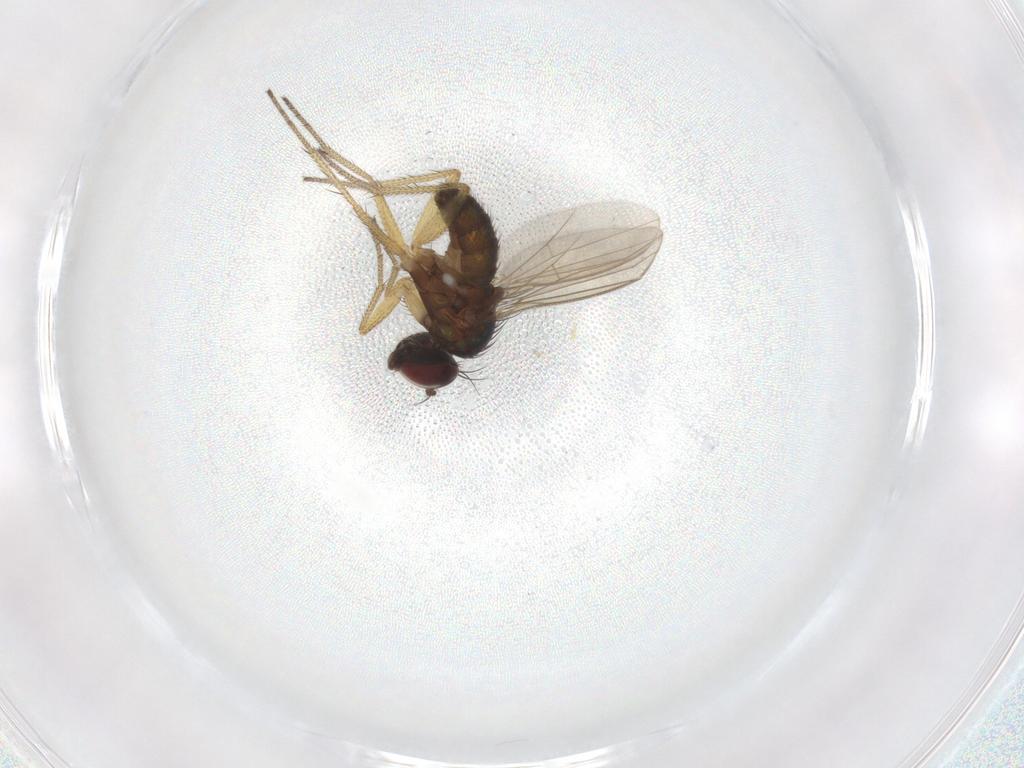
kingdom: Animalia
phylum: Arthropoda
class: Insecta
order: Diptera
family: Dolichopodidae
